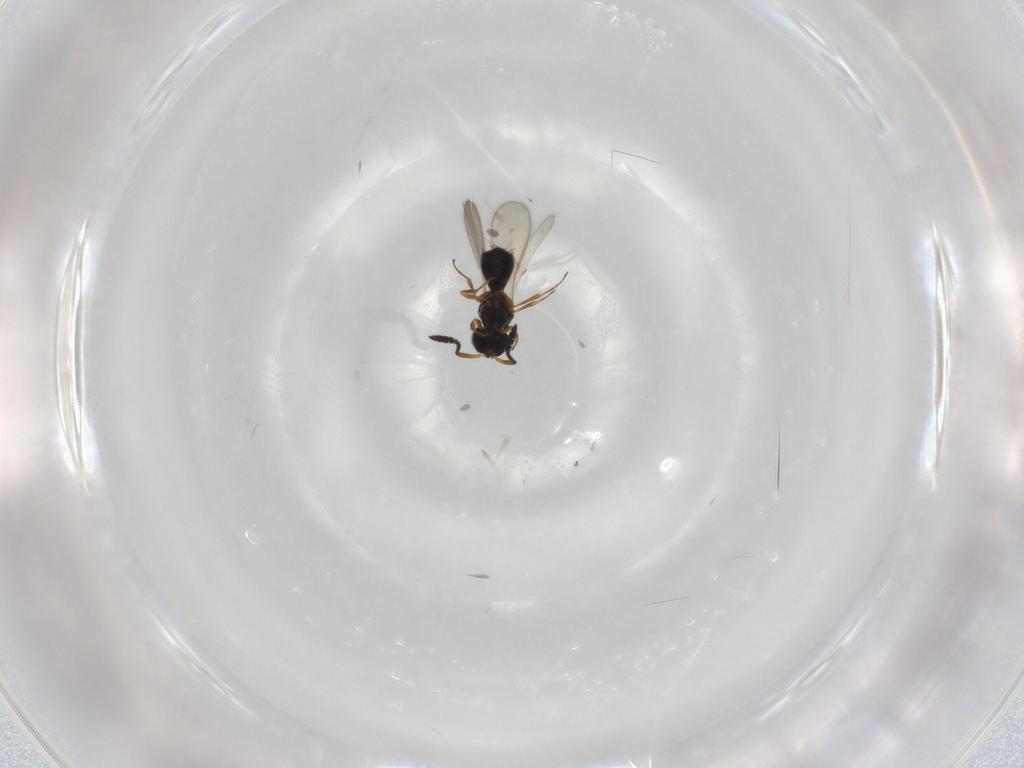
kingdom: Animalia
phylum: Arthropoda
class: Insecta
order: Hymenoptera
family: Scelionidae
